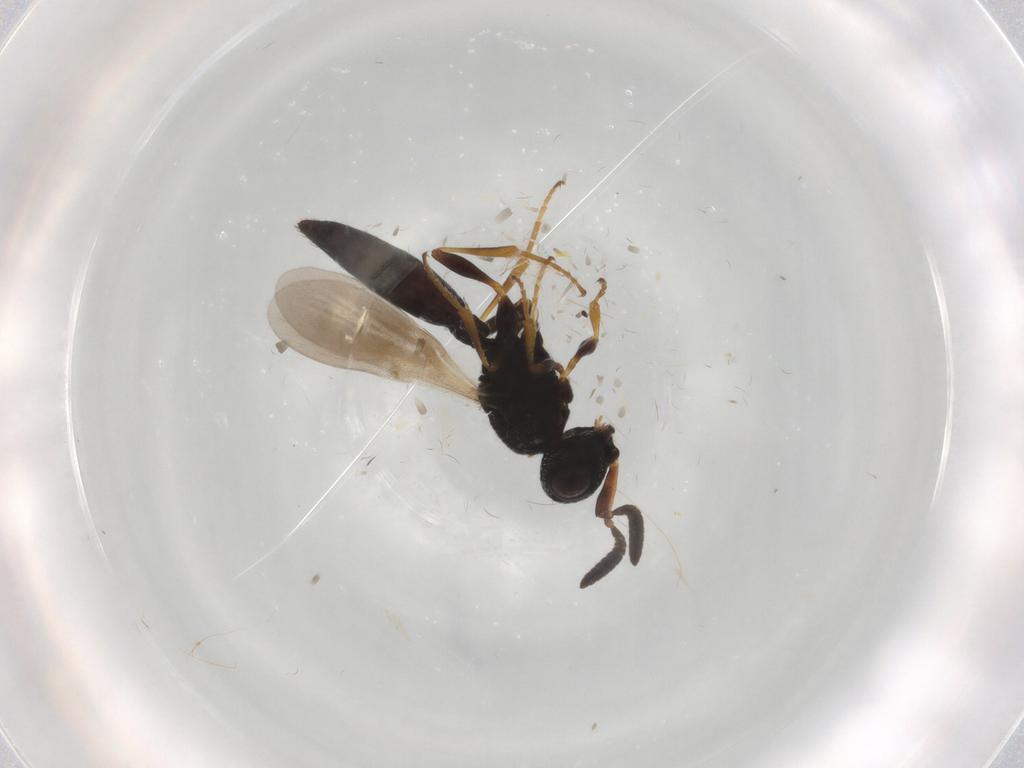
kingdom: Animalia
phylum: Arthropoda
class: Insecta
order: Hymenoptera
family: Scelionidae
